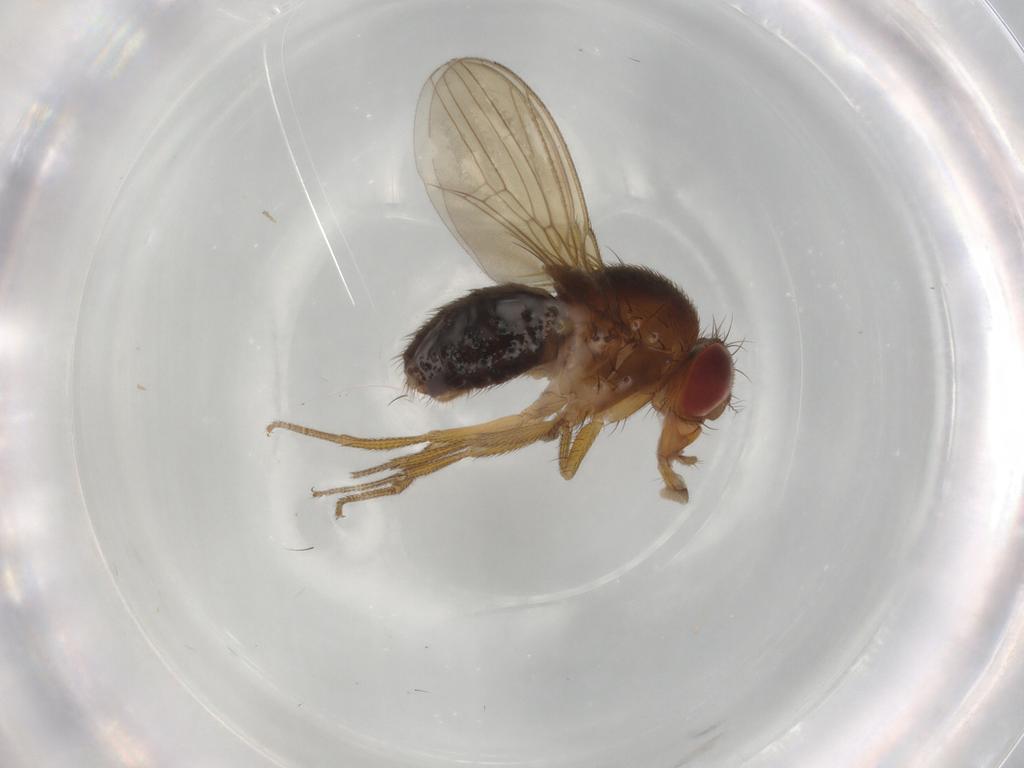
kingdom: Animalia
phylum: Arthropoda
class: Insecta
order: Diptera
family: Drosophilidae
